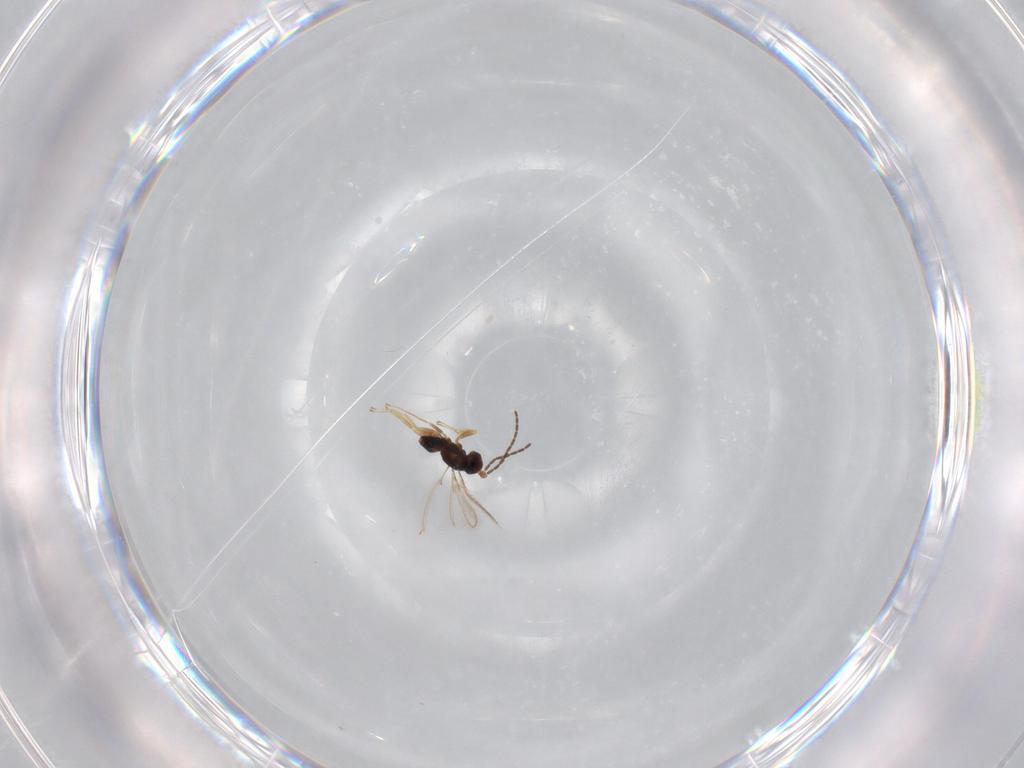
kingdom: Animalia
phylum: Arthropoda
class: Insecta
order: Hymenoptera
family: Mymaridae
